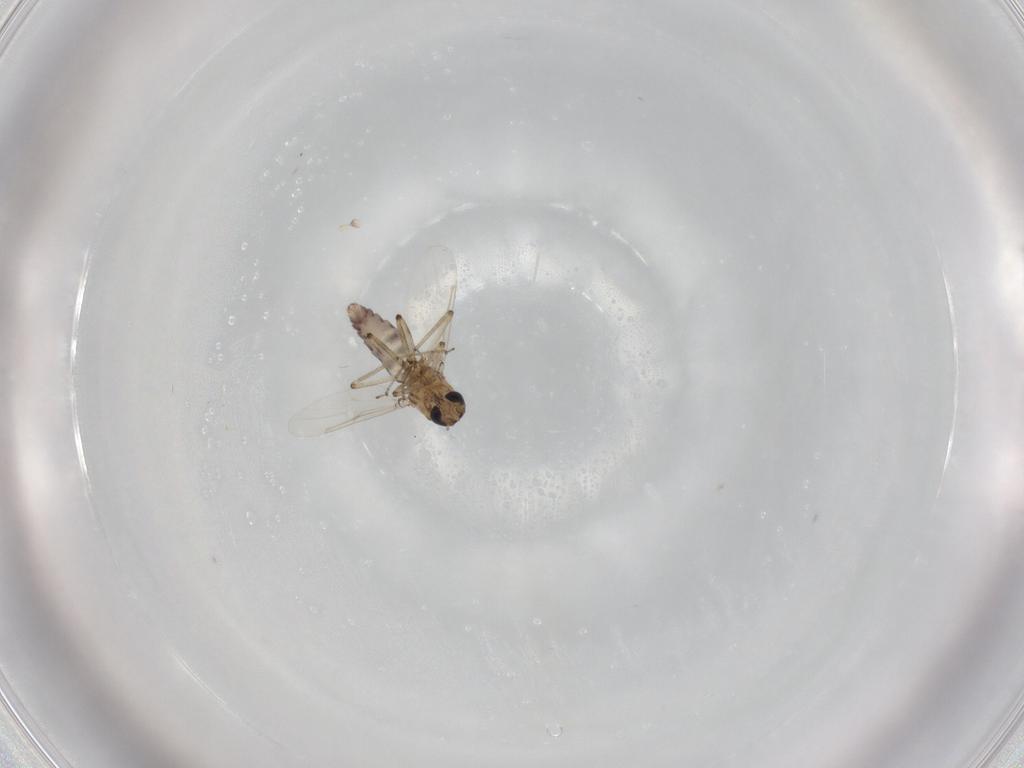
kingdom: Animalia
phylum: Arthropoda
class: Insecta
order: Diptera
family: Ceratopogonidae
